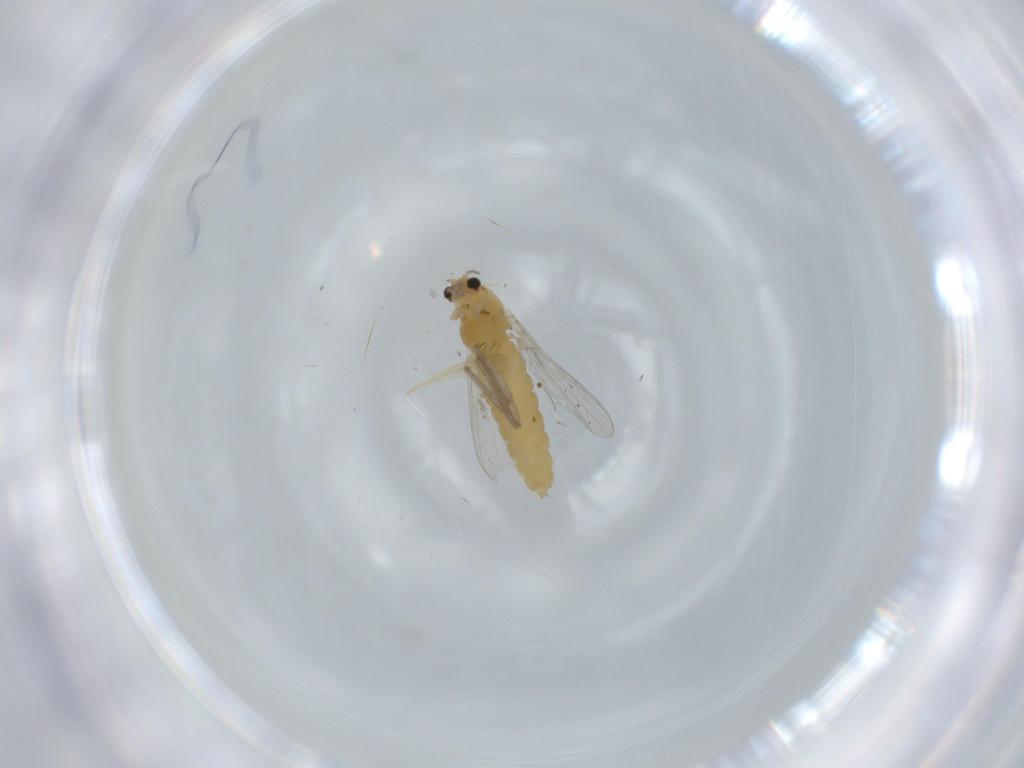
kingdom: Animalia
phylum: Arthropoda
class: Insecta
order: Diptera
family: Chironomidae
